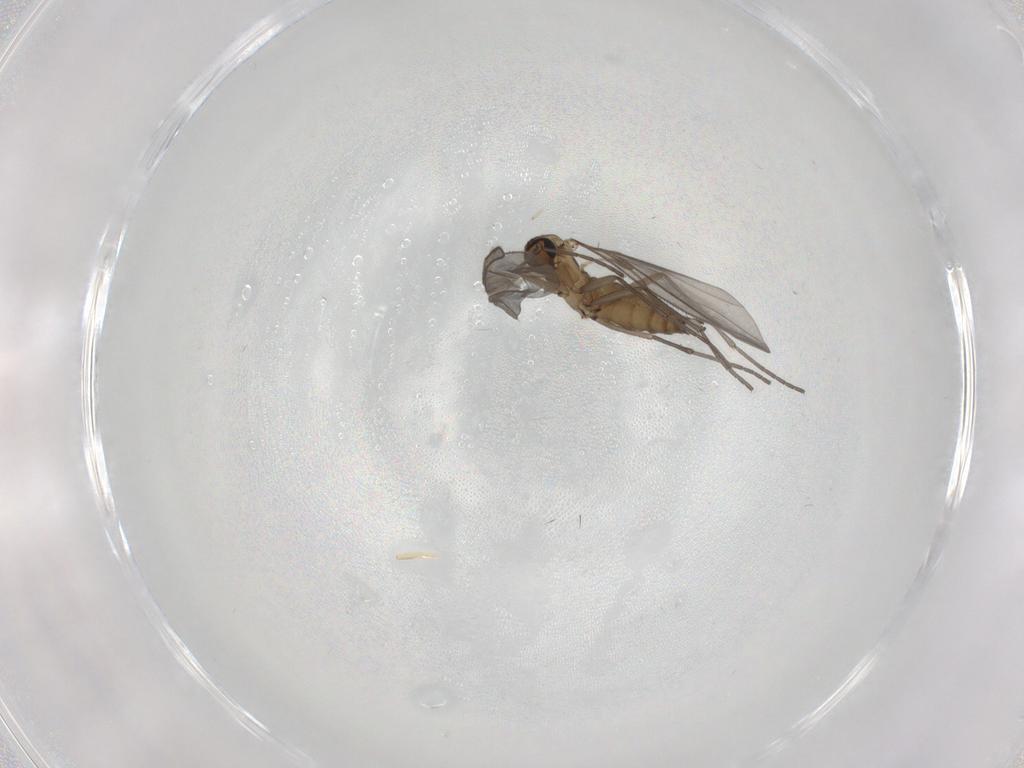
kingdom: Animalia
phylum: Arthropoda
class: Insecta
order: Diptera
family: Sciaridae
